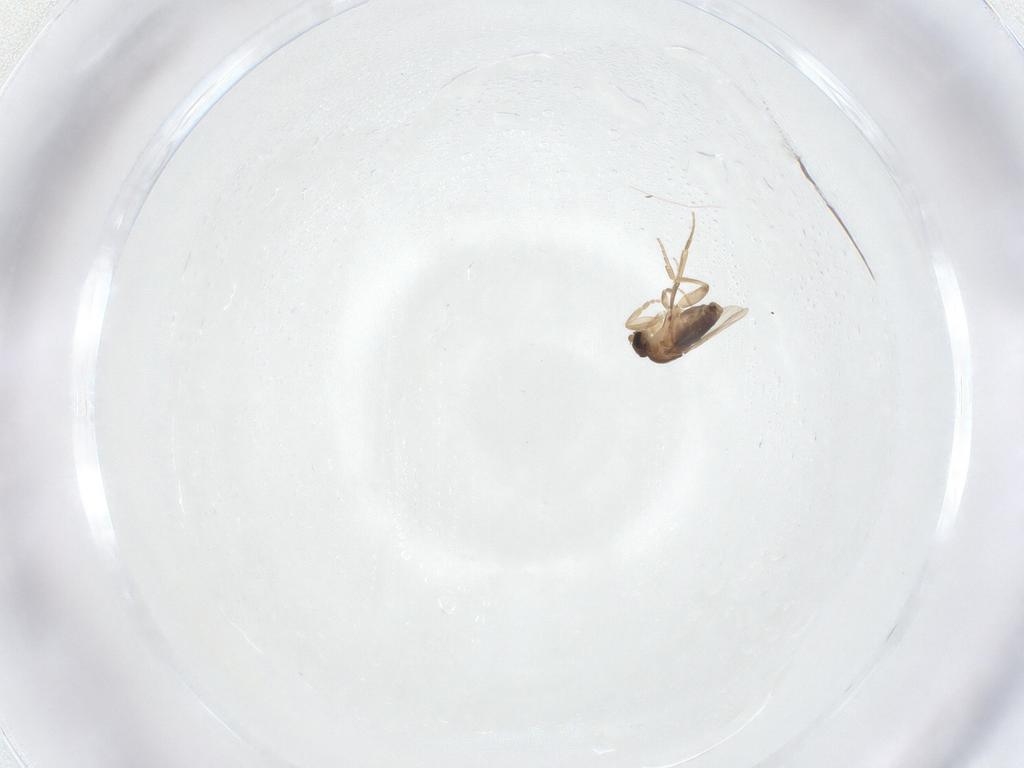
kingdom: Animalia
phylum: Arthropoda
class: Insecta
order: Diptera
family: Phoridae
